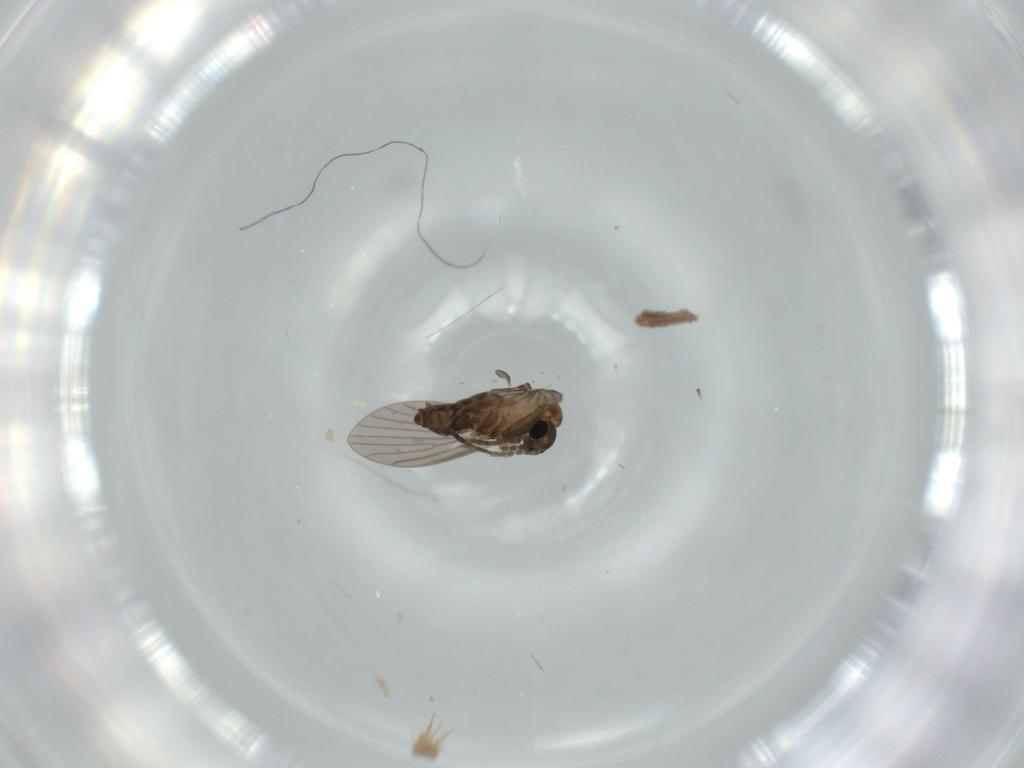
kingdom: Animalia
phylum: Arthropoda
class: Insecta
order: Diptera
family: Psychodidae
